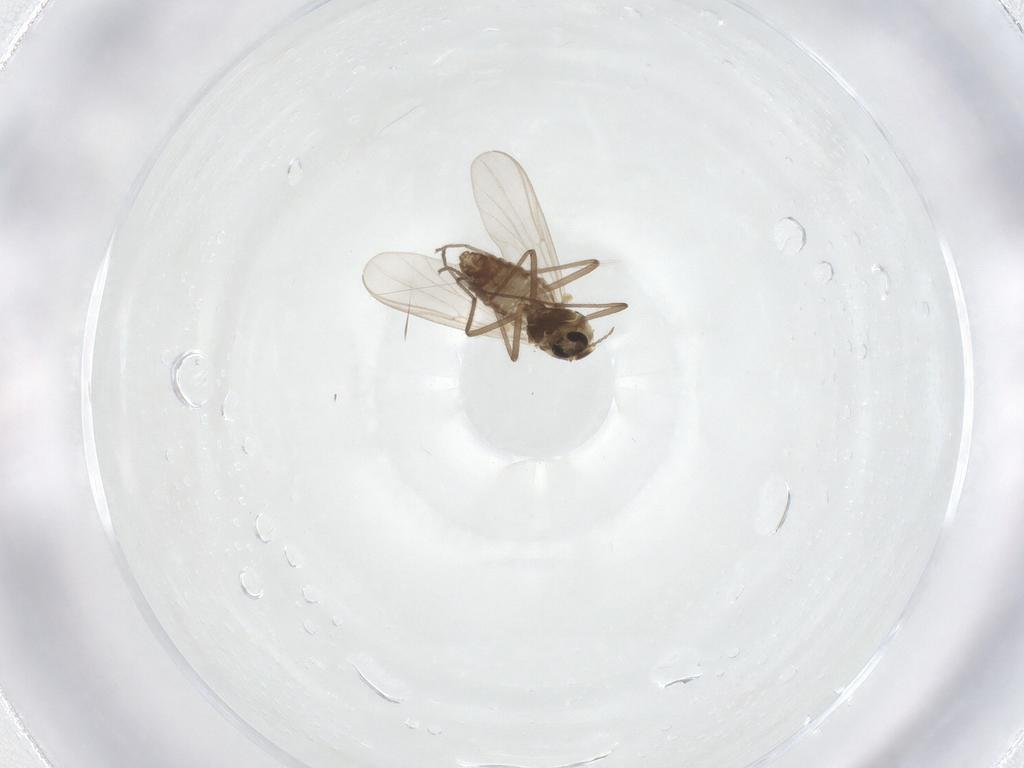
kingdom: Animalia
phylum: Arthropoda
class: Insecta
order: Diptera
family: Chironomidae
